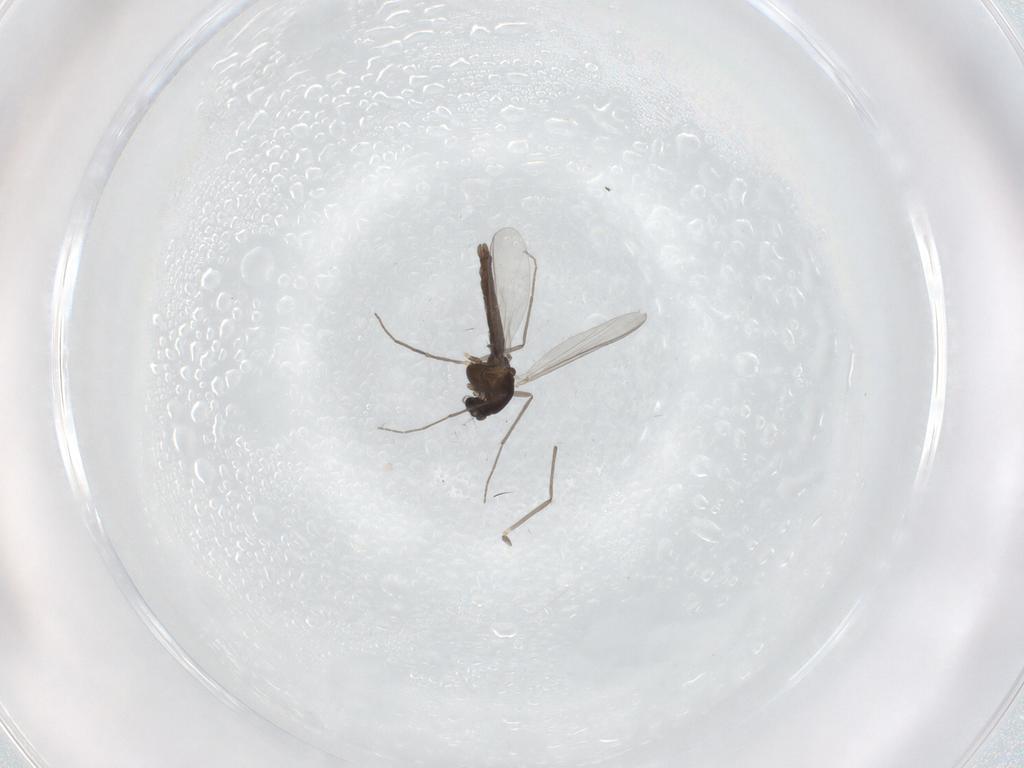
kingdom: Animalia
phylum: Arthropoda
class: Insecta
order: Diptera
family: Chironomidae
